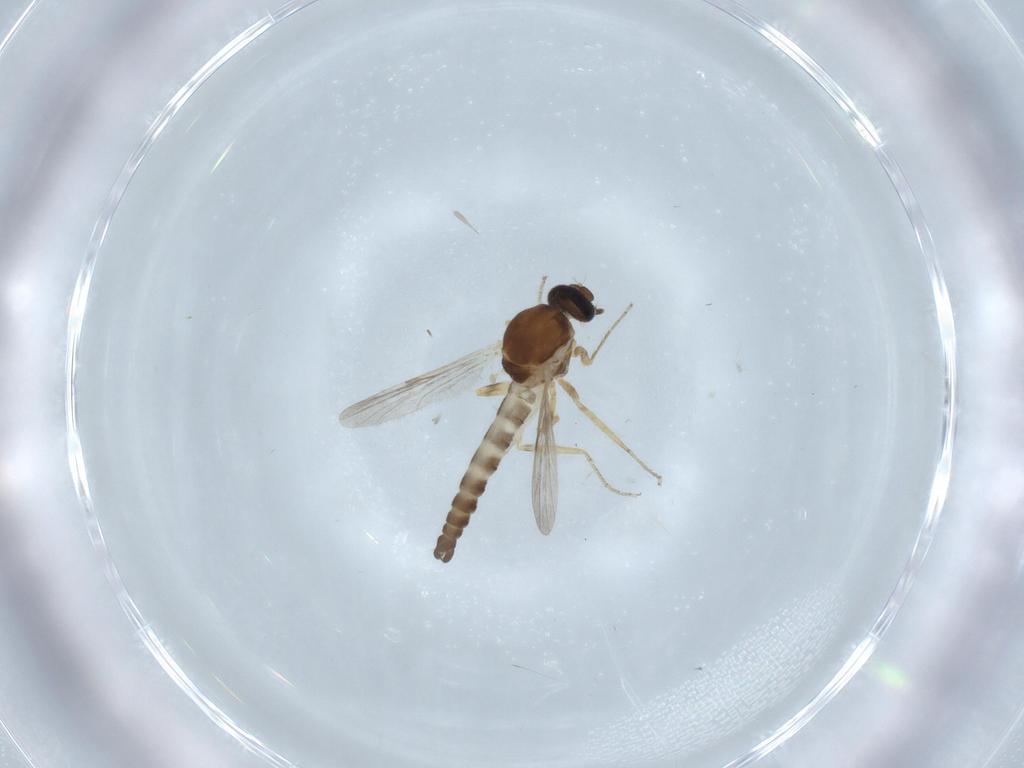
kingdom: Animalia
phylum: Arthropoda
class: Insecta
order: Diptera
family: Ceratopogonidae
